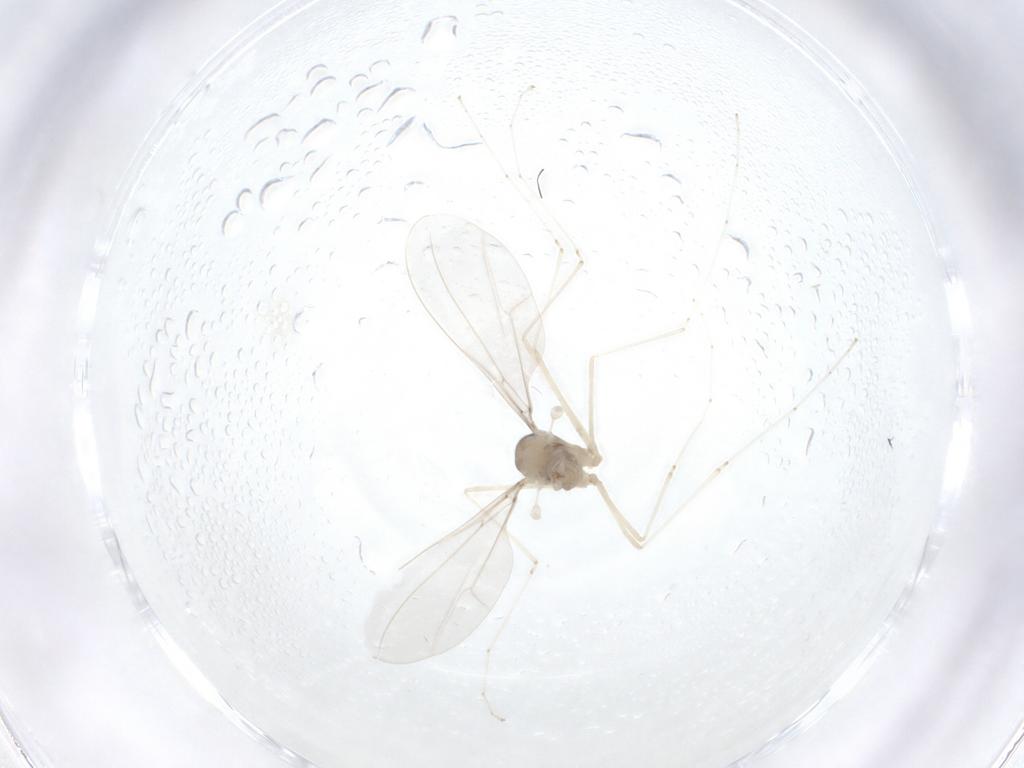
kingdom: Animalia
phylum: Arthropoda
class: Insecta
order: Diptera
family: Cecidomyiidae
